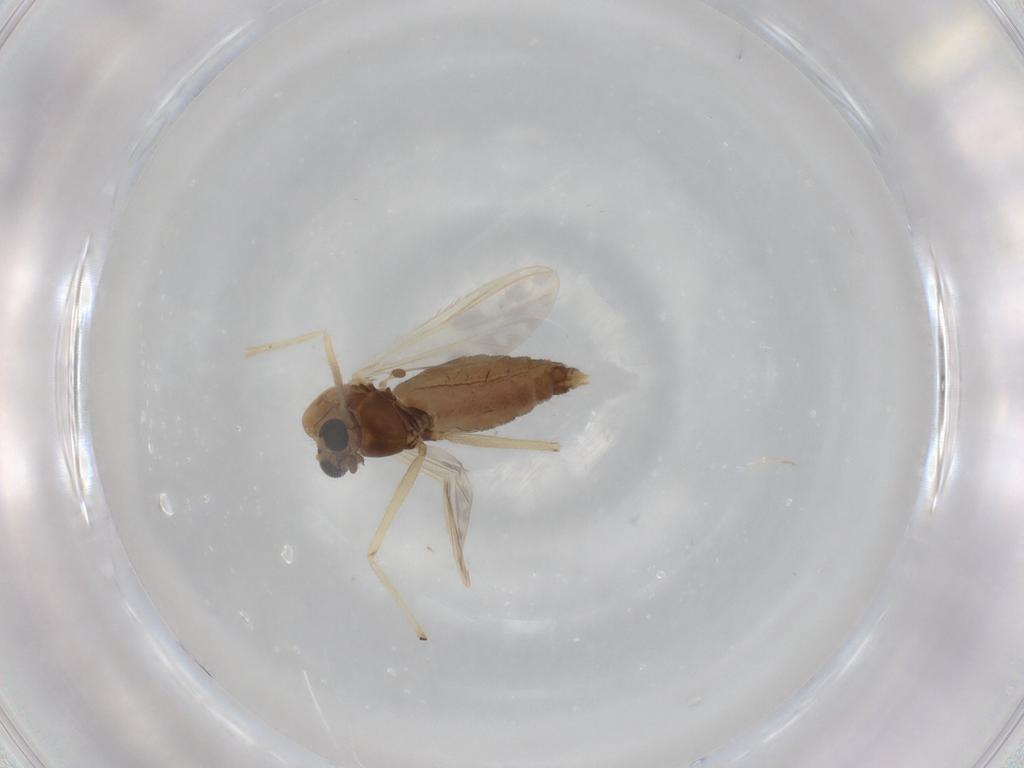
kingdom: Animalia
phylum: Arthropoda
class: Insecta
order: Diptera
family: Chironomidae
